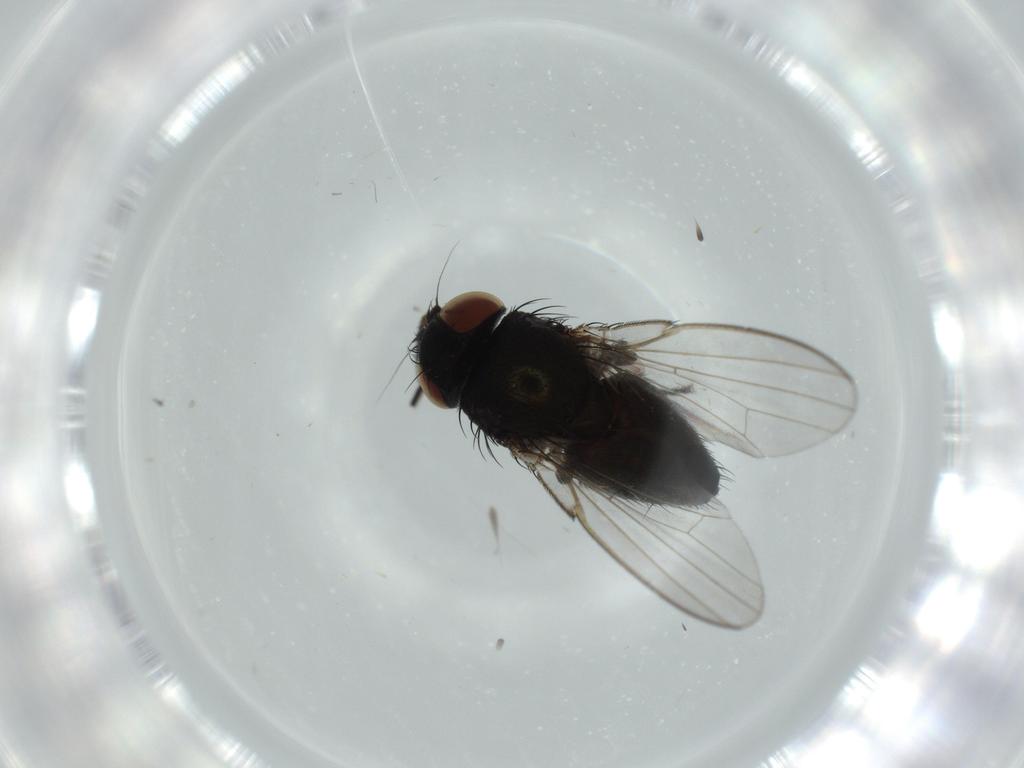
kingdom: Animalia
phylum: Arthropoda
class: Insecta
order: Diptera
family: Milichiidae
